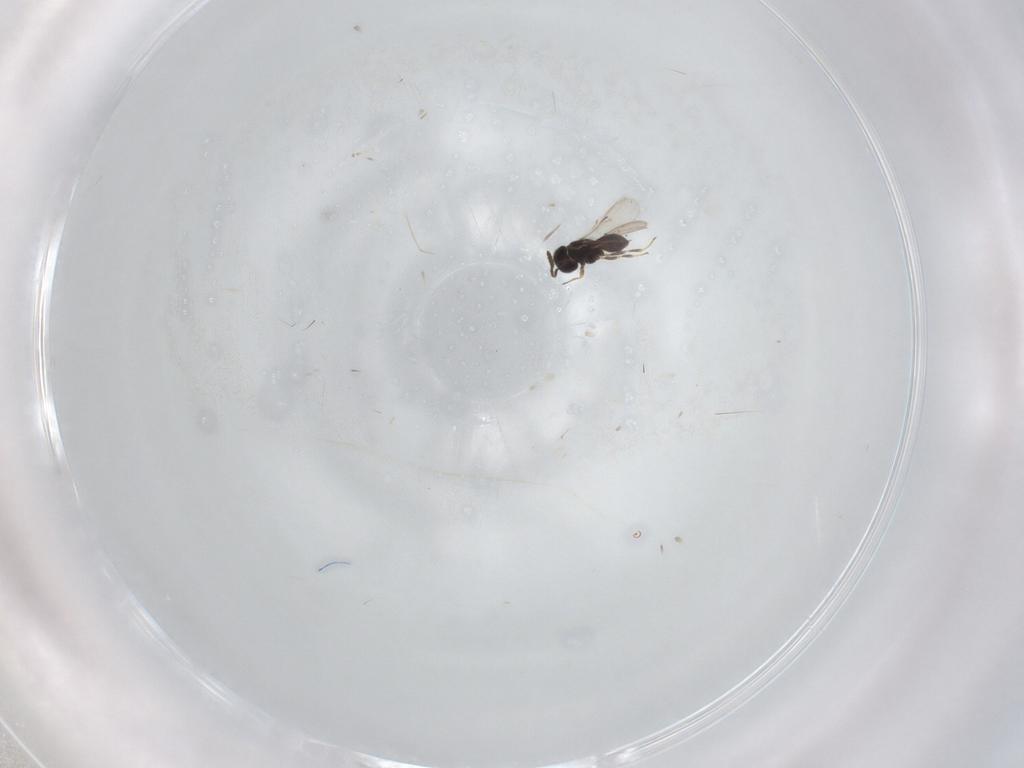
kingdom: Animalia
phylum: Arthropoda
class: Insecta
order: Hymenoptera
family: Scelionidae
